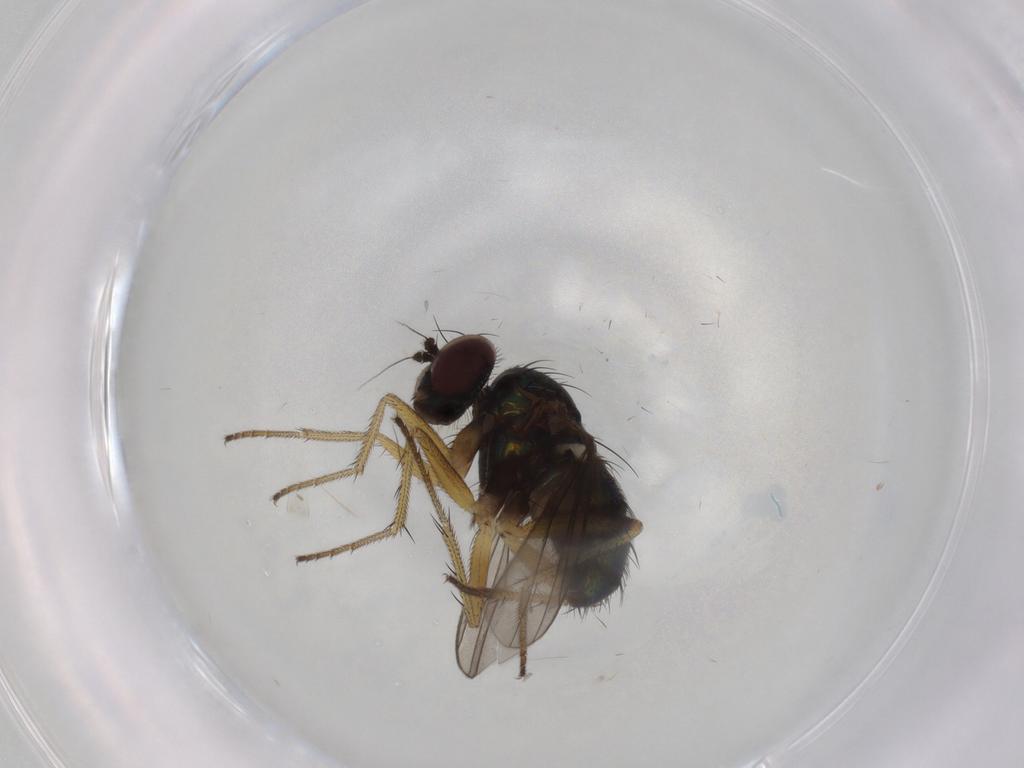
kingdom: Animalia
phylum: Arthropoda
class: Insecta
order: Diptera
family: Dolichopodidae
